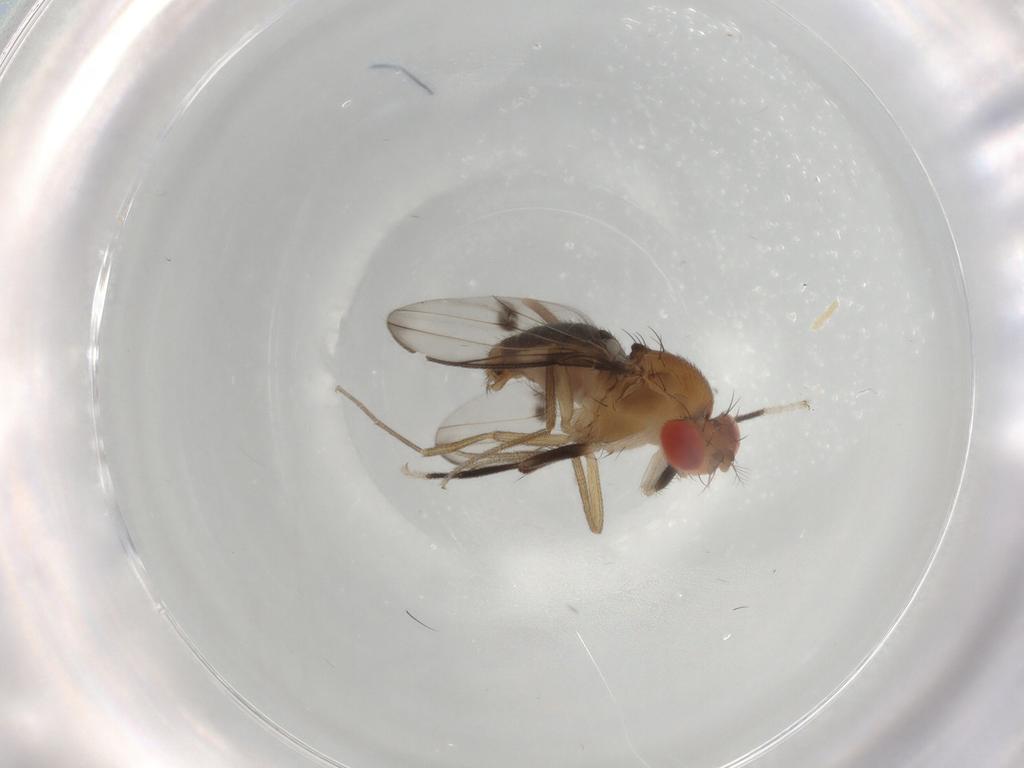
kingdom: Animalia
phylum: Arthropoda
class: Insecta
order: Diptera
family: Drosophilidae
